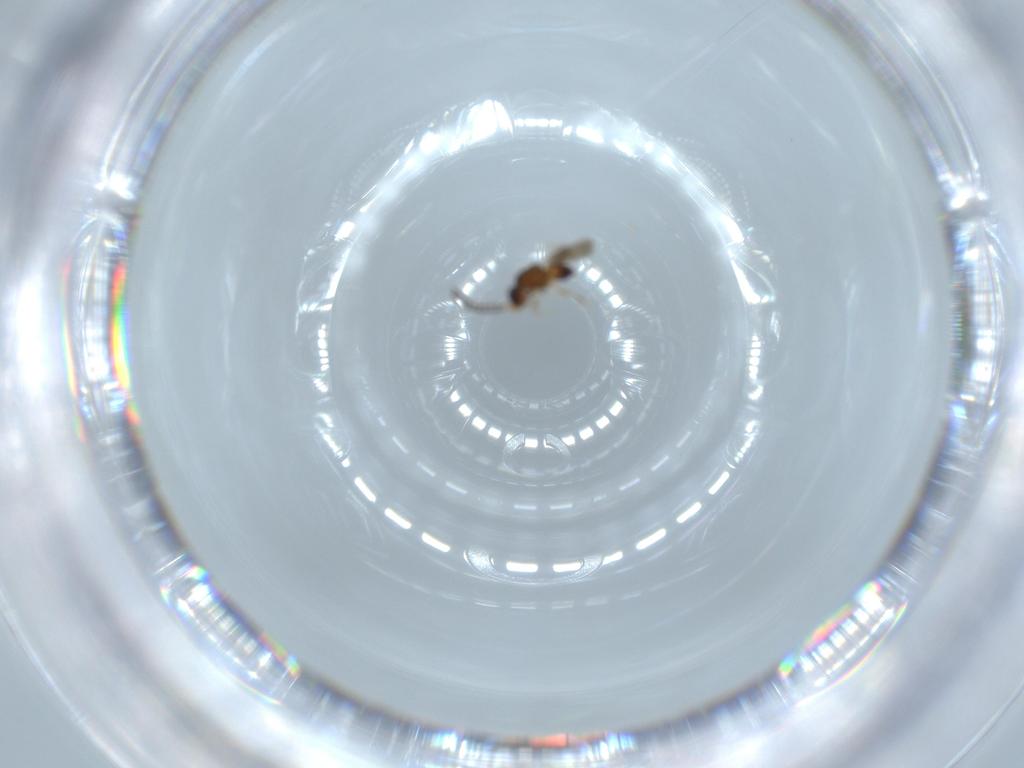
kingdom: Animalia
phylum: Arthropoda
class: Insecta
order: Hymenoptera
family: Ceraphronidae
